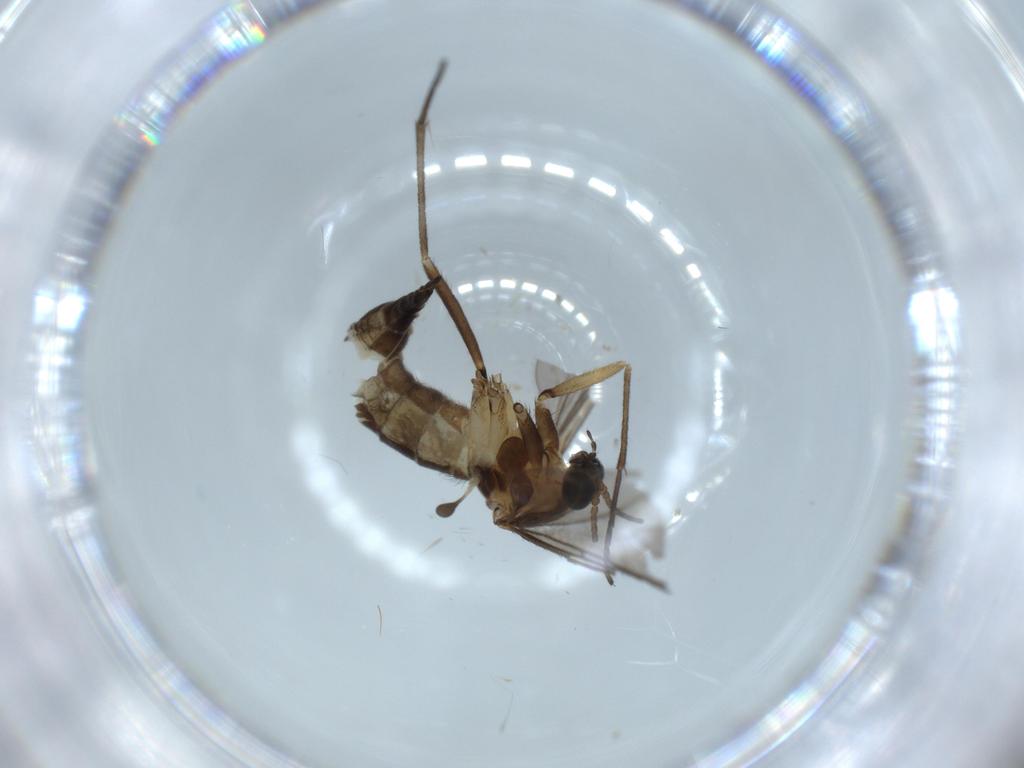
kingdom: Animalia
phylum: Arthropoda
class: Insecta
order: Diptera
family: Sciaridae
